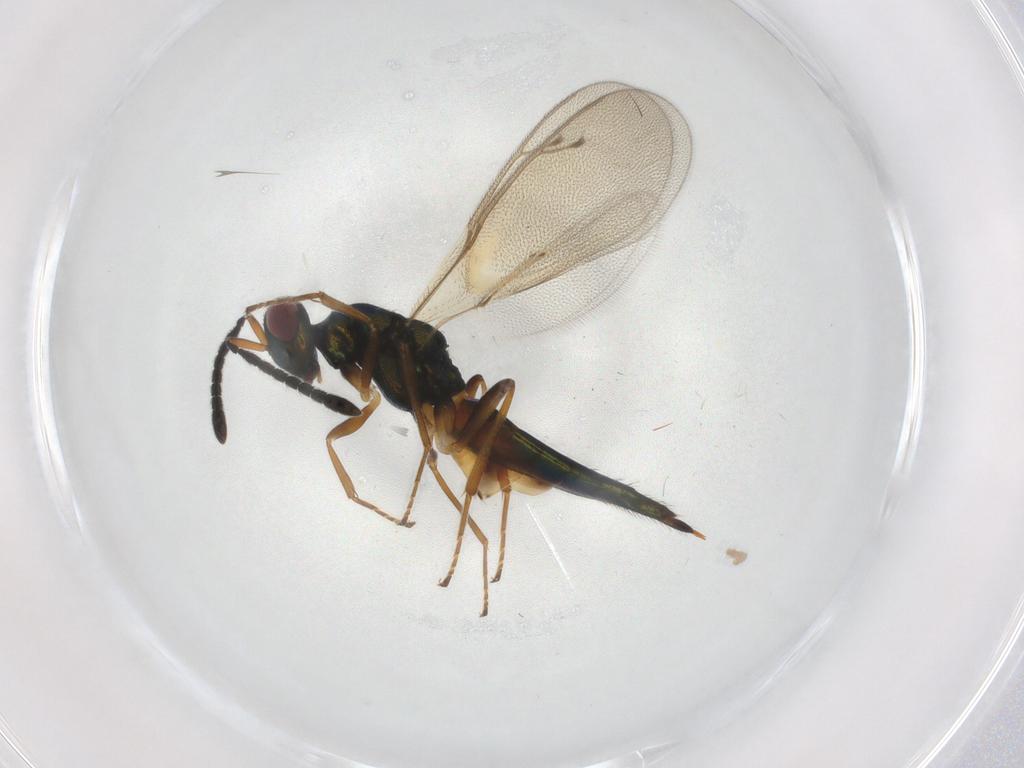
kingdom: Animalia
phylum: Arthropoda
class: Insecta
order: Hymenoptera
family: Pteromalidae
